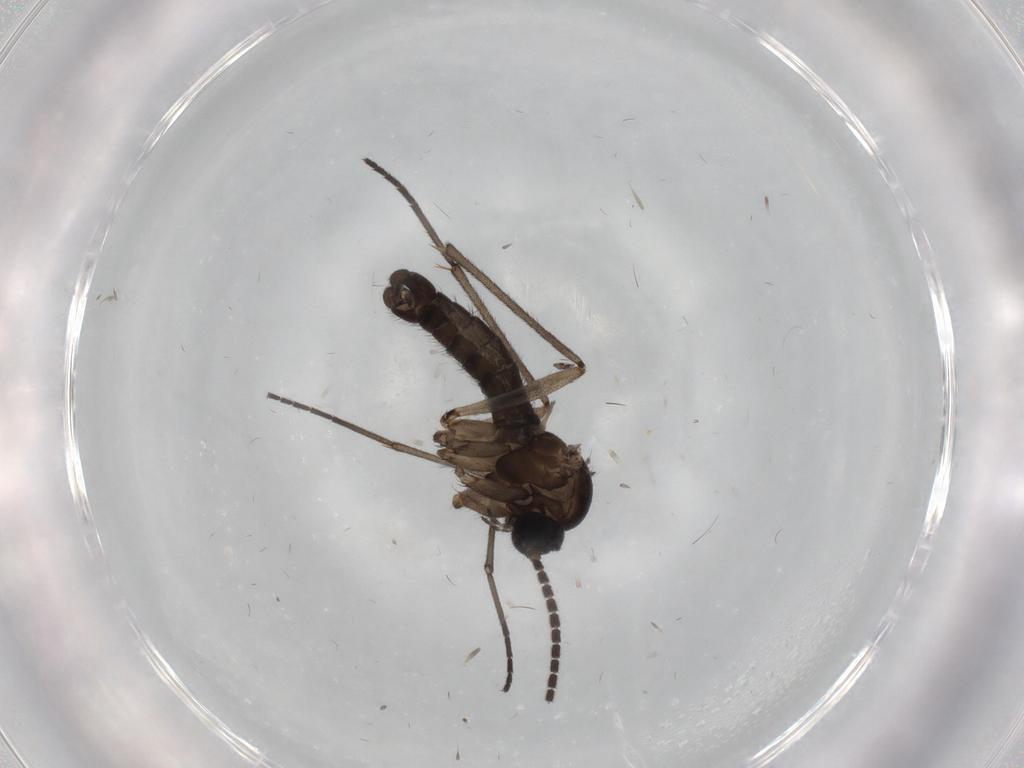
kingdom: Animalia
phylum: Arthropoda
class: Insecta
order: Diptera
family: Sciaridae
